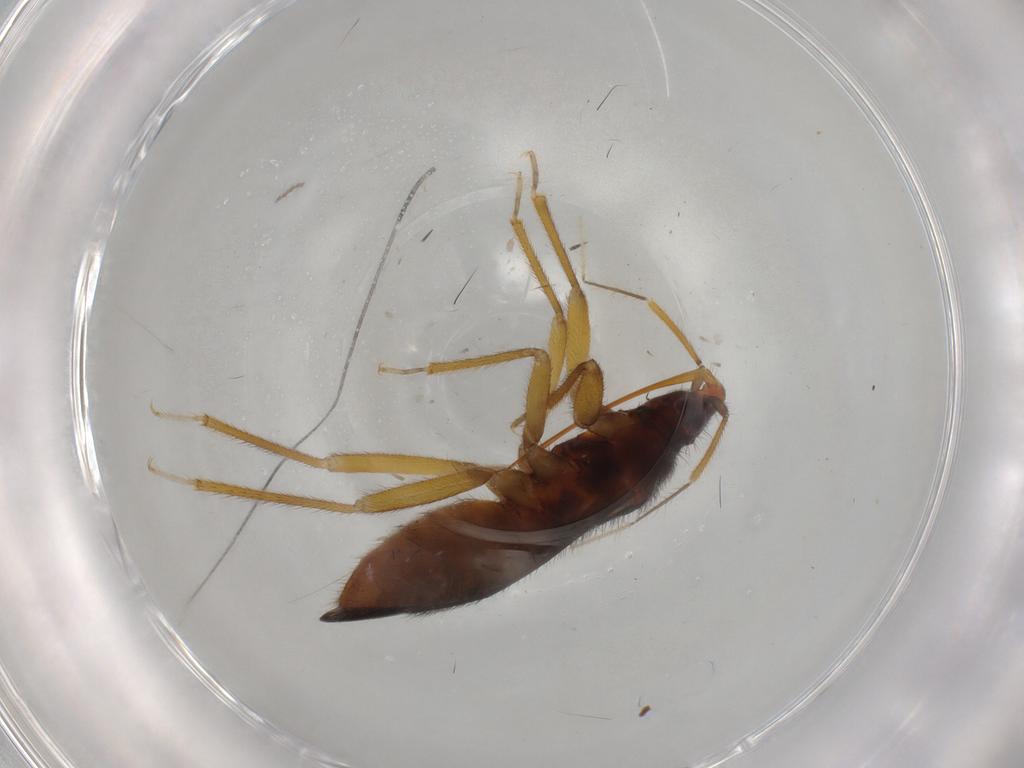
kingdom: Animalia
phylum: Arthropoda
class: Insecta
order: Hemiptera
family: Anthocoridae
